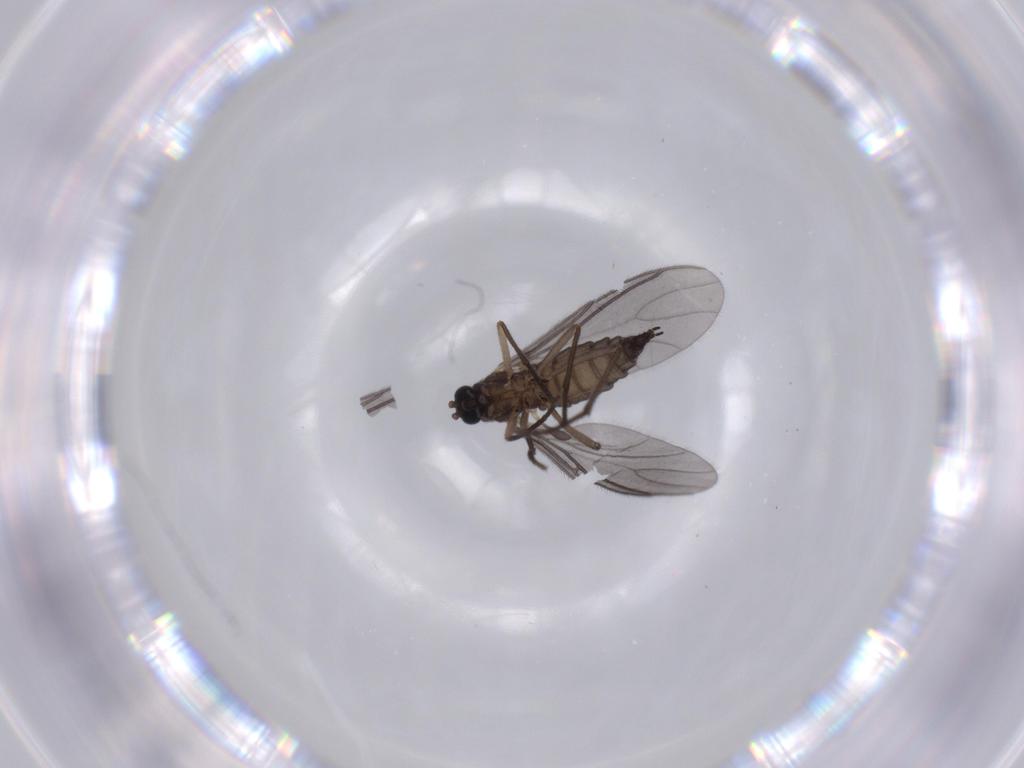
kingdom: Animalia
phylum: Arthropoda
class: Insecta
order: Diptera
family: Sciaridae
